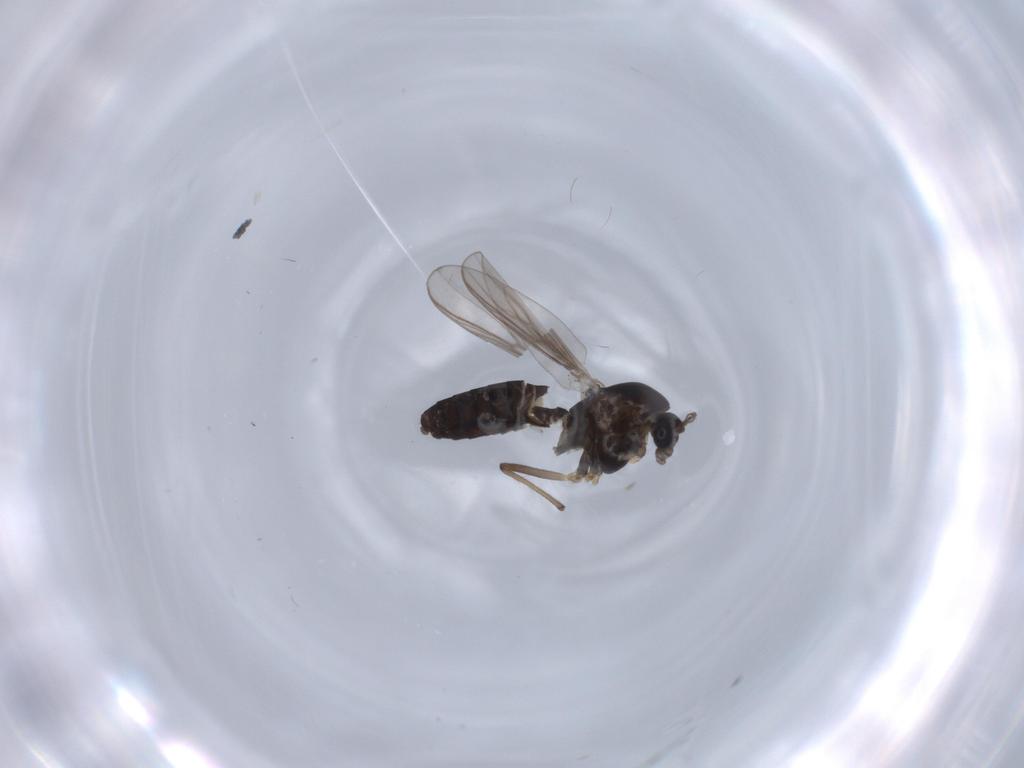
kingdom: Animalia
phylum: Arthropoda
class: Insecta
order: Diptera
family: Chironomidae
